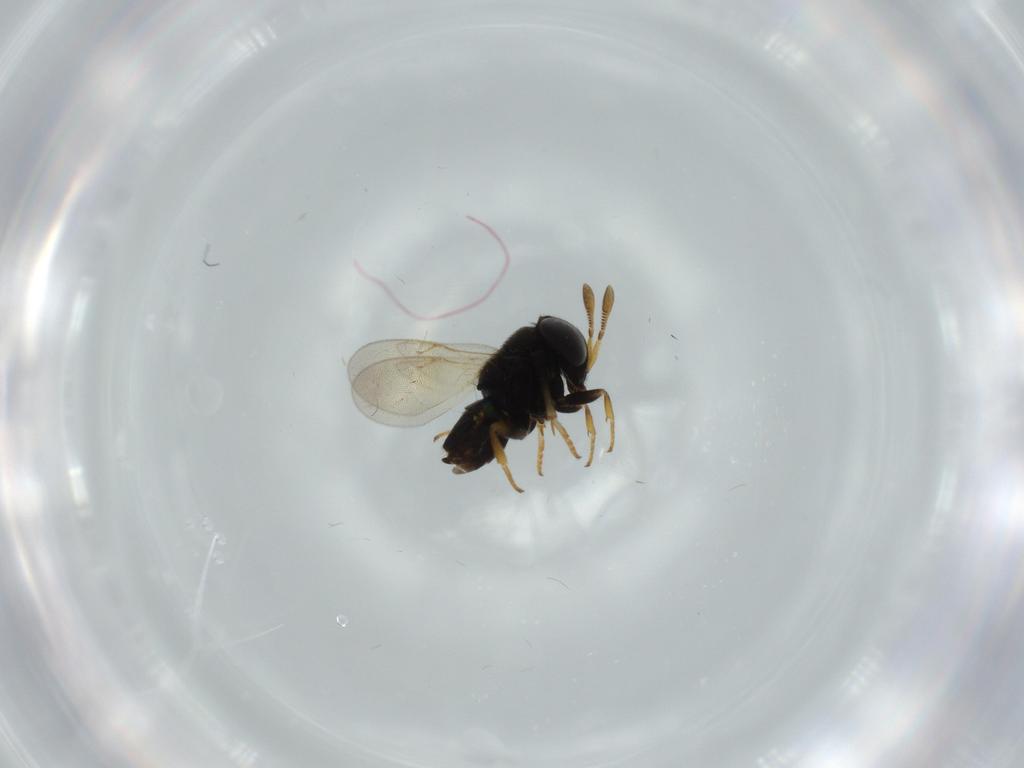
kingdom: Animalia
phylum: Arthropoda
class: Insecta
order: Hymenoptera
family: Encyrtidae
